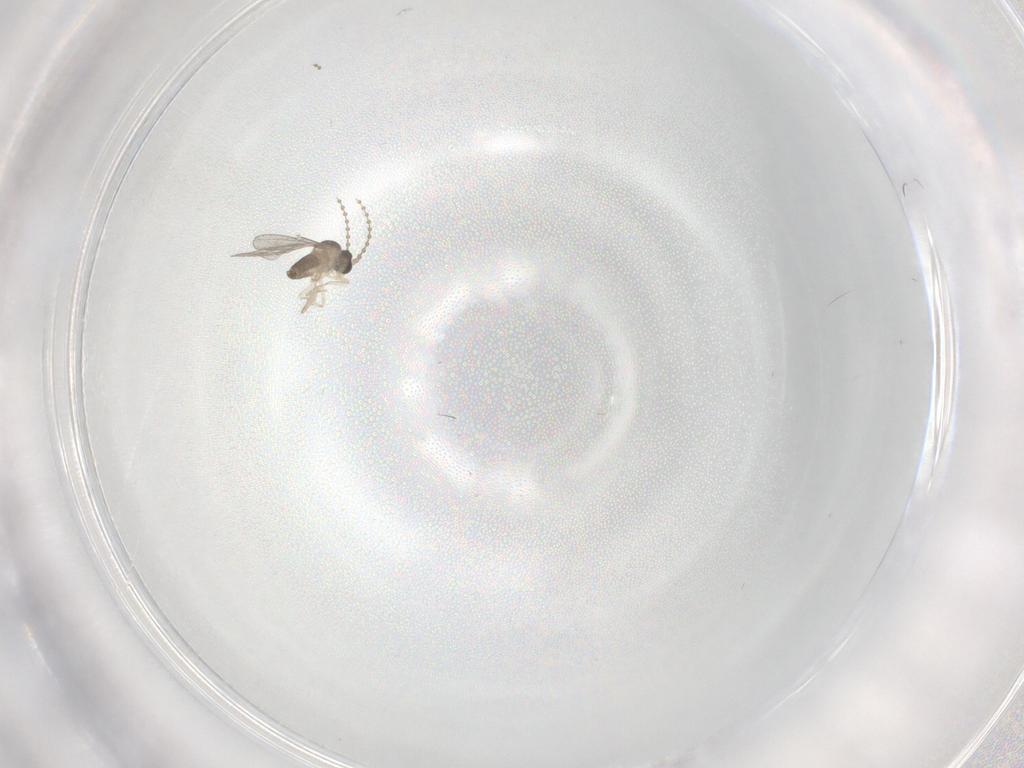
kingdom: Animalia
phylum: Arthropoda
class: Insecta
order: Diptera
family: Cecidomyiidae
